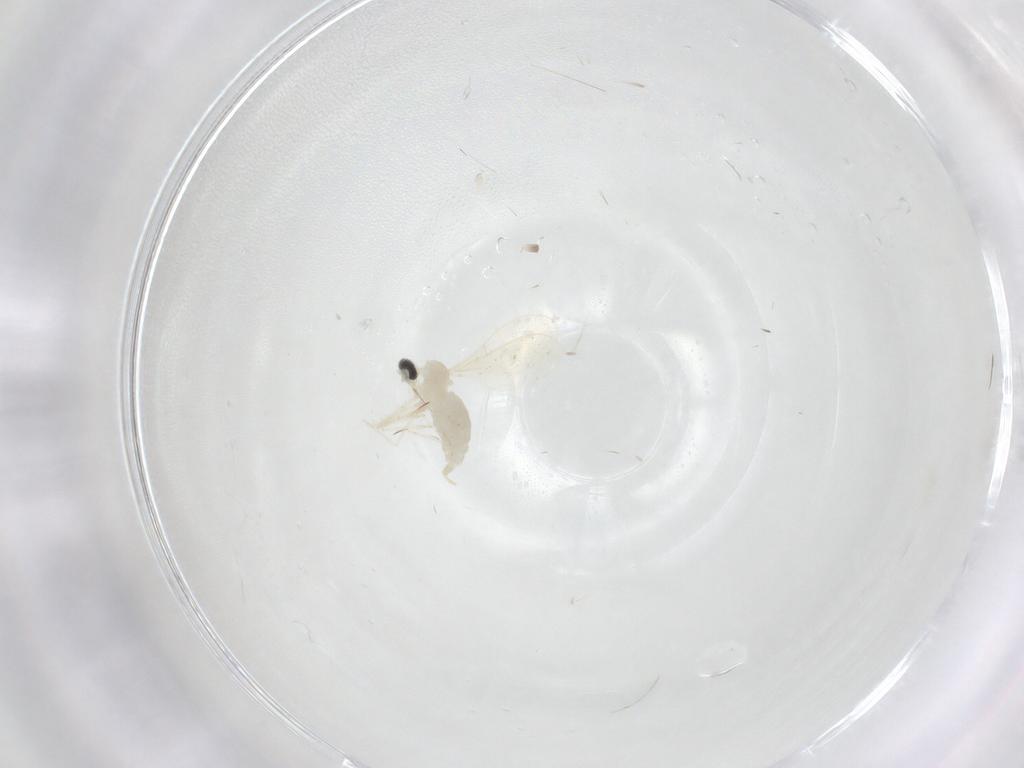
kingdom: Animalia
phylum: Arthropoda
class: Insecta
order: Diptera
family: Cecidomyiidae
